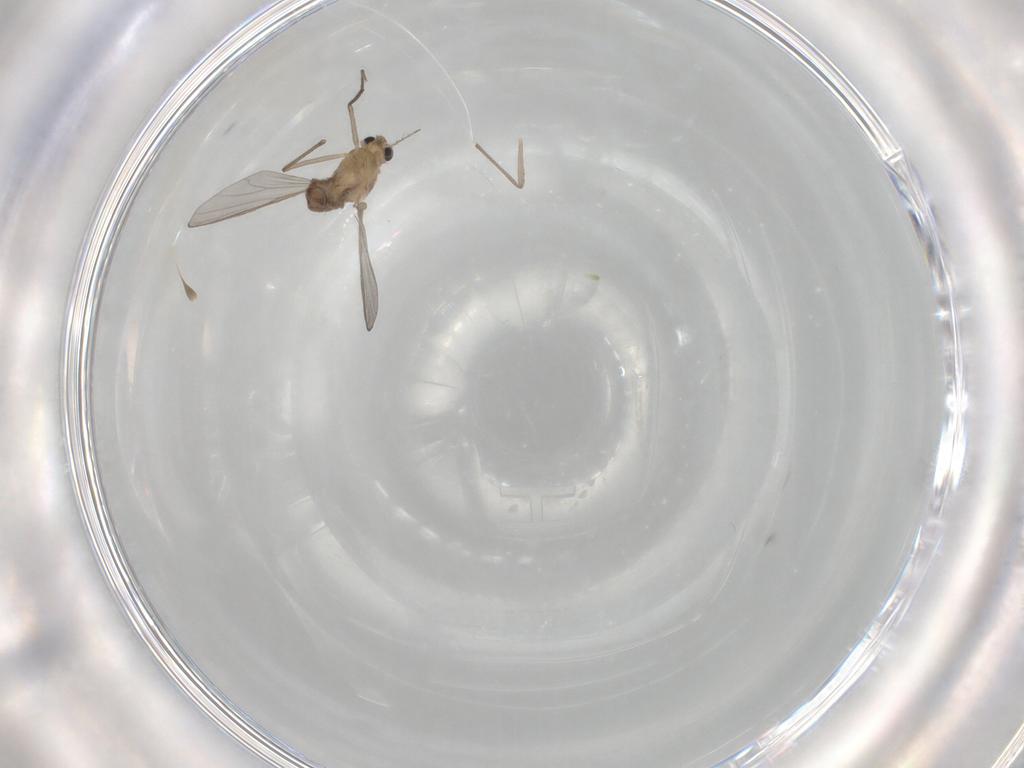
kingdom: Animalia
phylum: Arthropoda
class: Insecta
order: Diptera
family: Chironomidae
